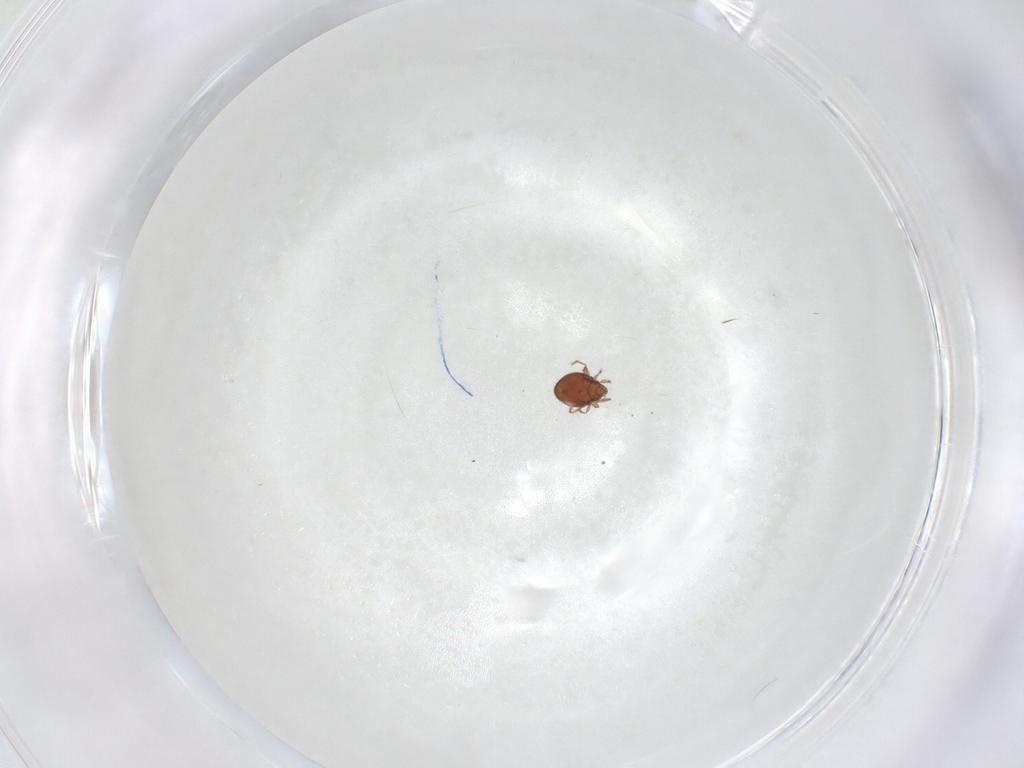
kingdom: Animalia
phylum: Arthropoda
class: Arachnida
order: Sarcoptiformes
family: Oribatulidae
